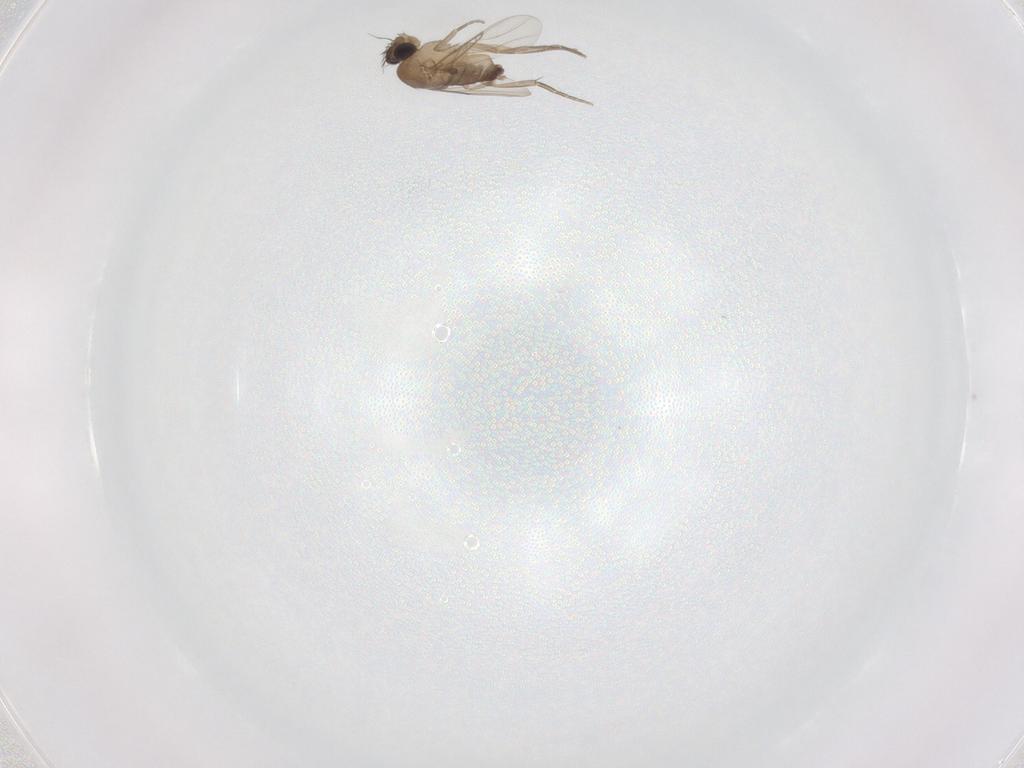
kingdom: Animalia
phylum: Arthropoda
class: Insecta
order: Diptera
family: Phoridae
